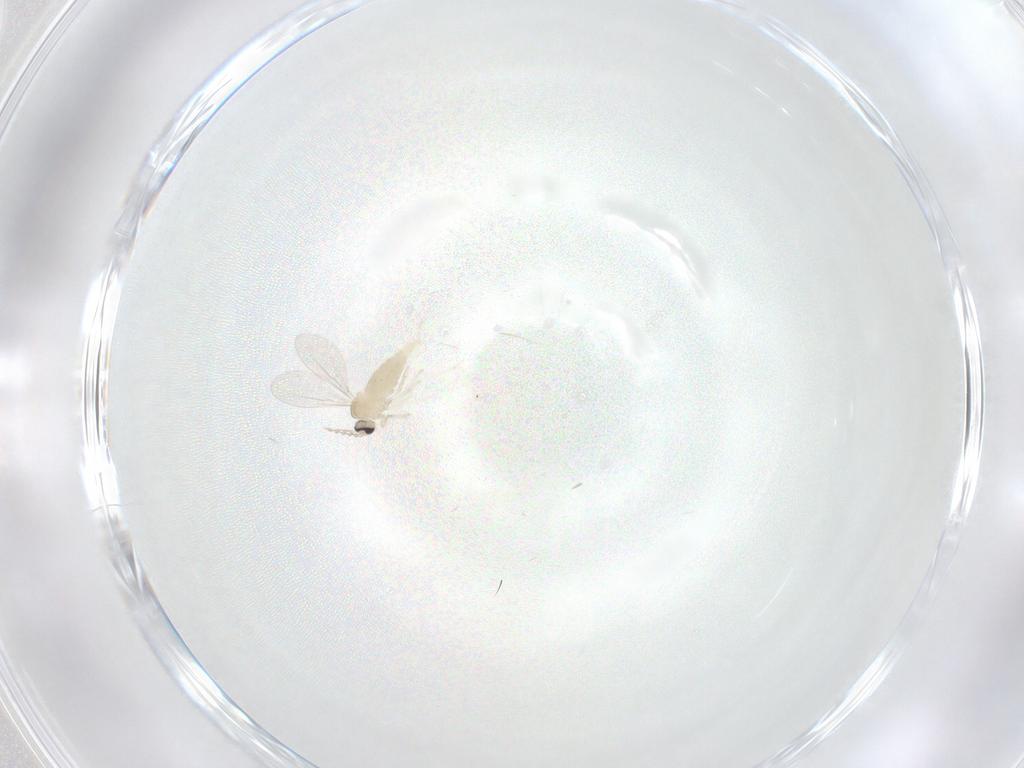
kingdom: Animalia
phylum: Arthropoda
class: Insecta
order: Diptera
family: Cecidomyiidae
